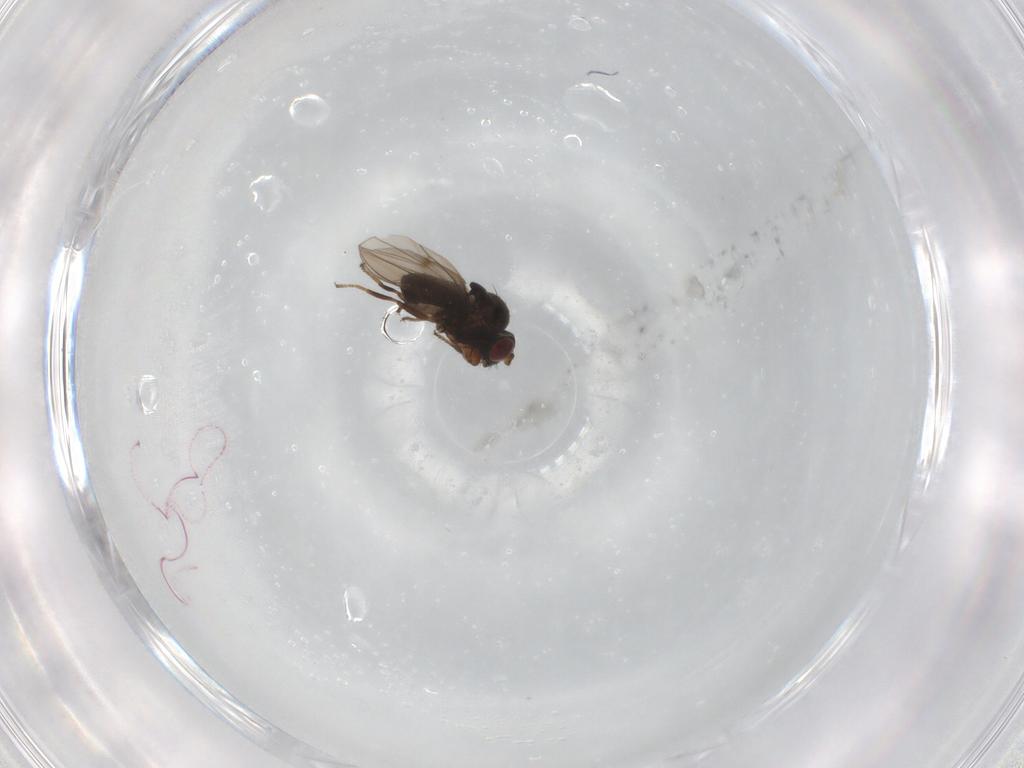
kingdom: Animalia
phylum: Arthropoda
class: Insecta
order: Diptera
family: Ephydridae
